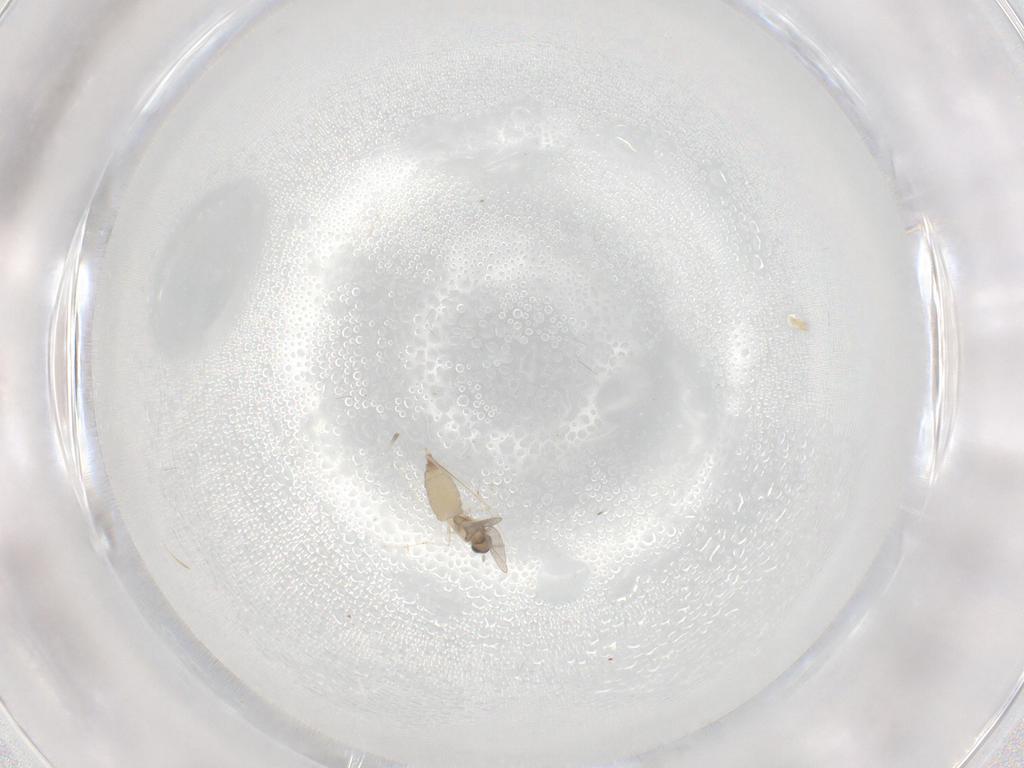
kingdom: Animalia
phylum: Arthropoda
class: Insecta
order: Diptera
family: Cecidomyiidae
